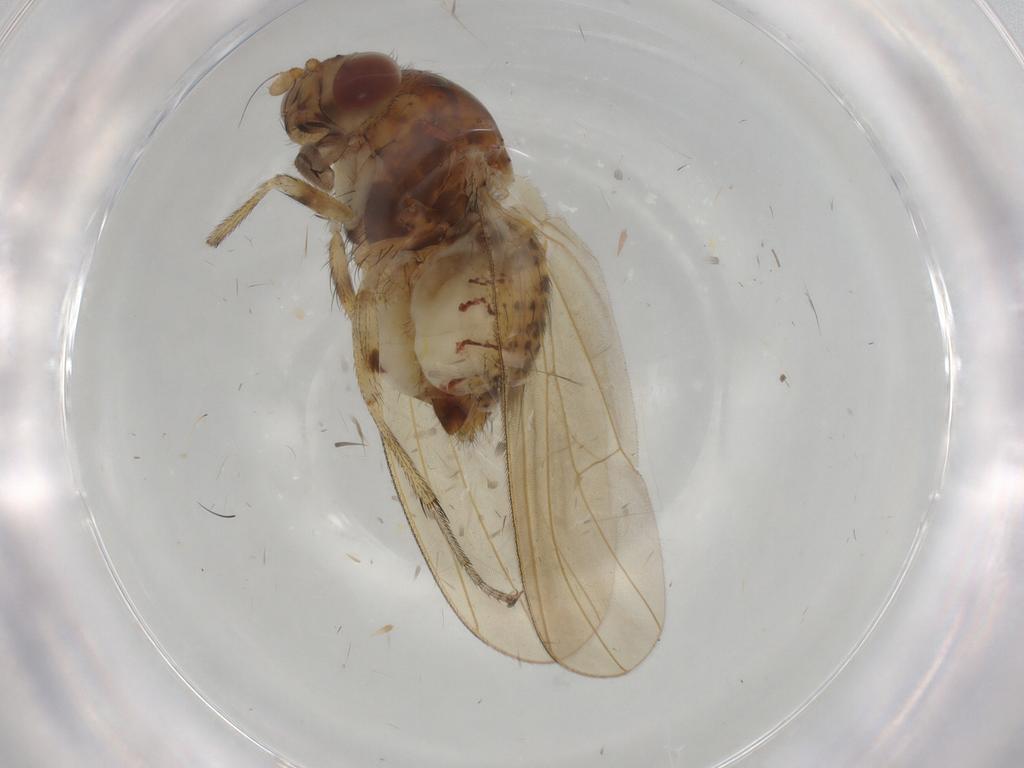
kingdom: Animalia
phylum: Arthropoda
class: Insecta
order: Diptera
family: Lauxaniidae
